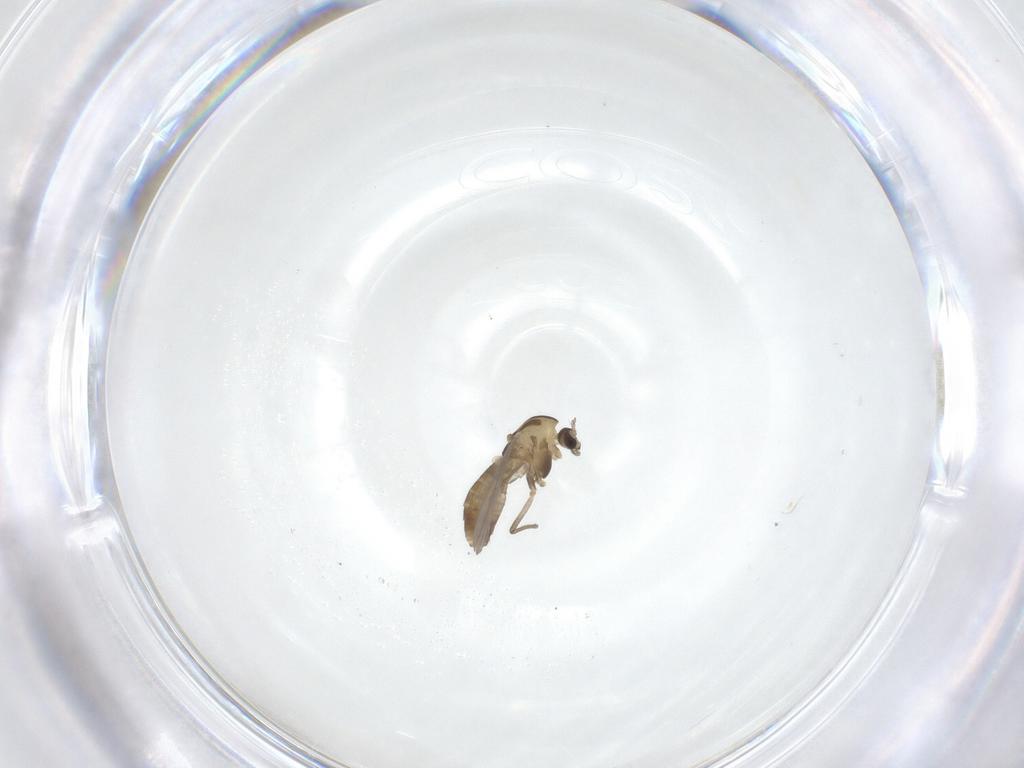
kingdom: Animalia
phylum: Arthropoda
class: Insecta
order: Diptera
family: Chironomidae
